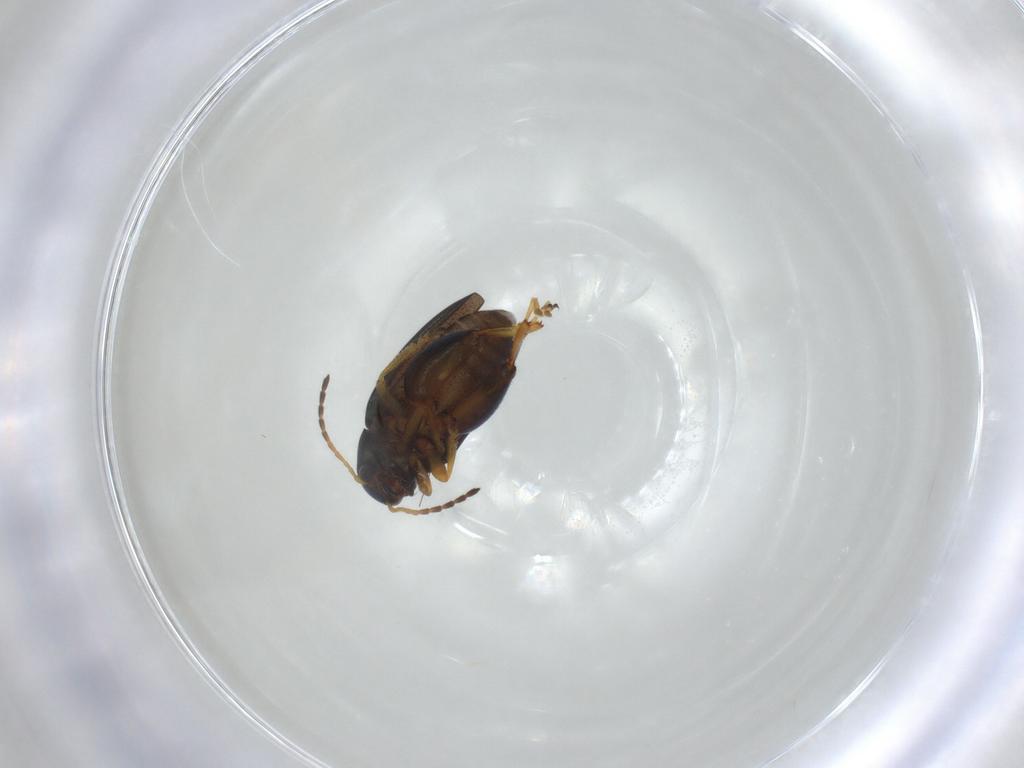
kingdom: Animalia
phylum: Arthropoda
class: Insecta
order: Coleoptera
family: Chrysomelidae
